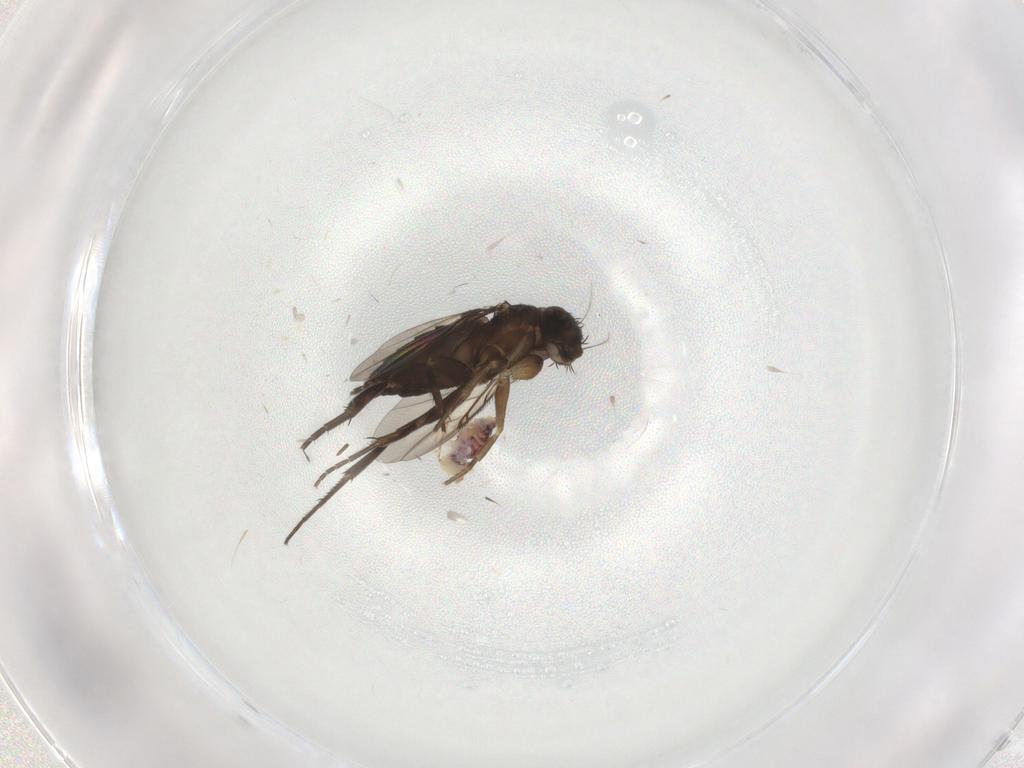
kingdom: Animalia
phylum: Arthropoda
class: Insecta
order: Diptera
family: Phoridae
